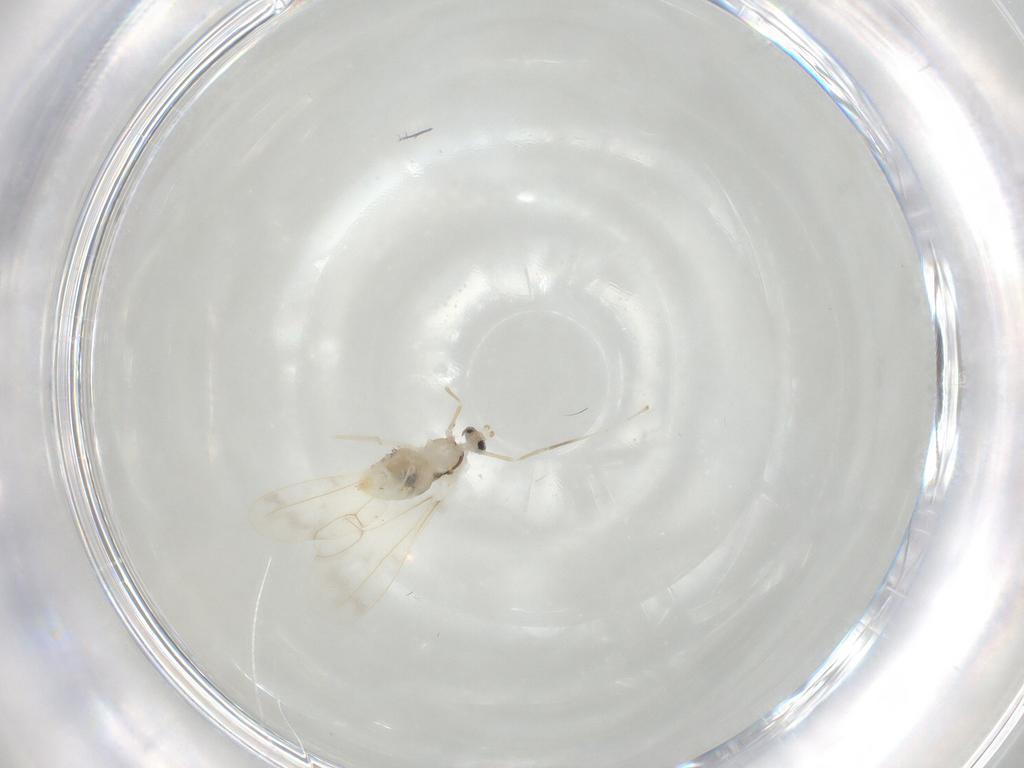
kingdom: Animalia
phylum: Arthropoda
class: Insecta
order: Diptera
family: Cecidomyiidae
